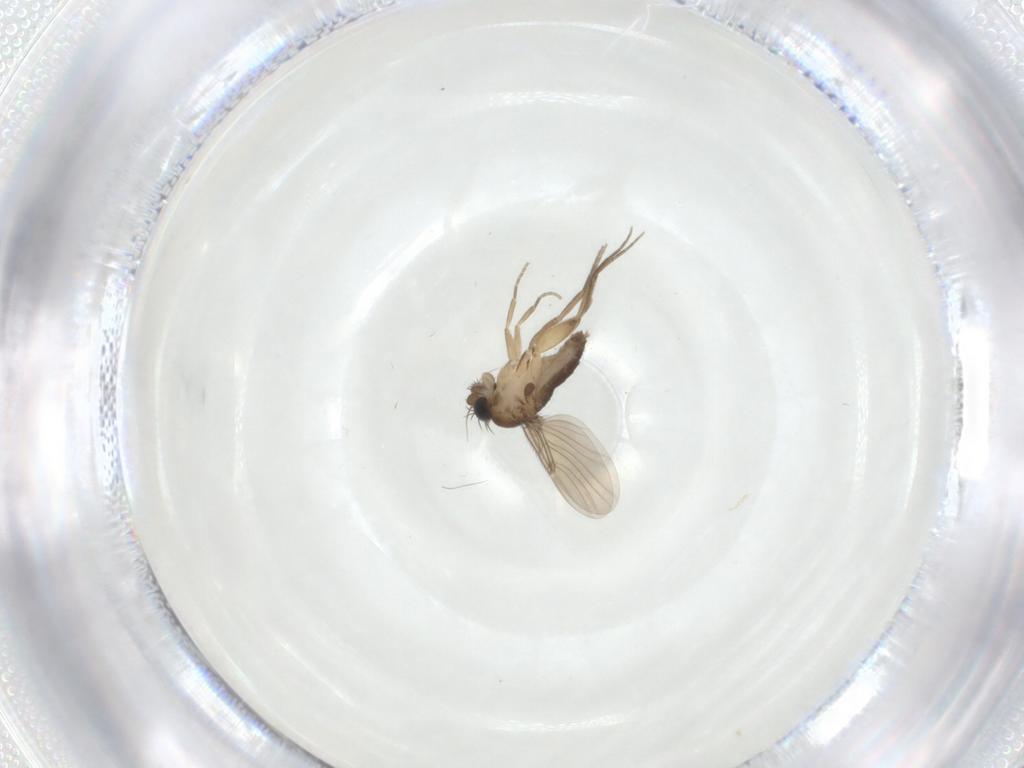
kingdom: Animalia
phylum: Arthropoda
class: Insecta
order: Diptera
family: Phoridae
